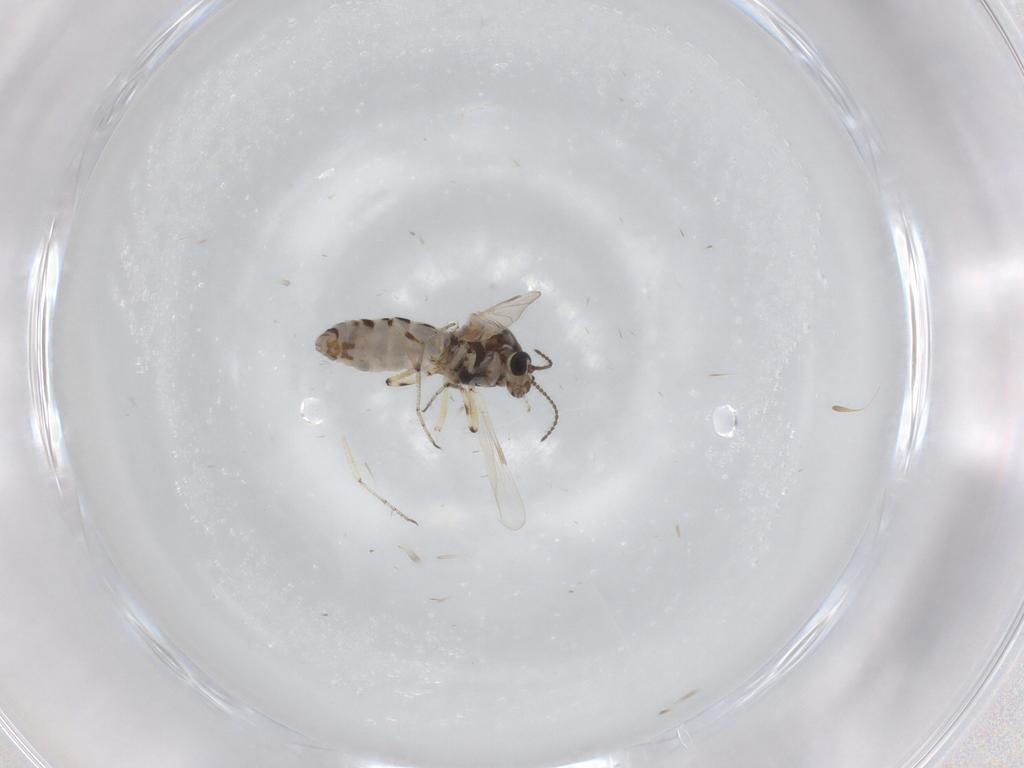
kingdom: Animalia
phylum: Arthropoda
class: Insecta
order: Diptera
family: Ceratopogonidae
